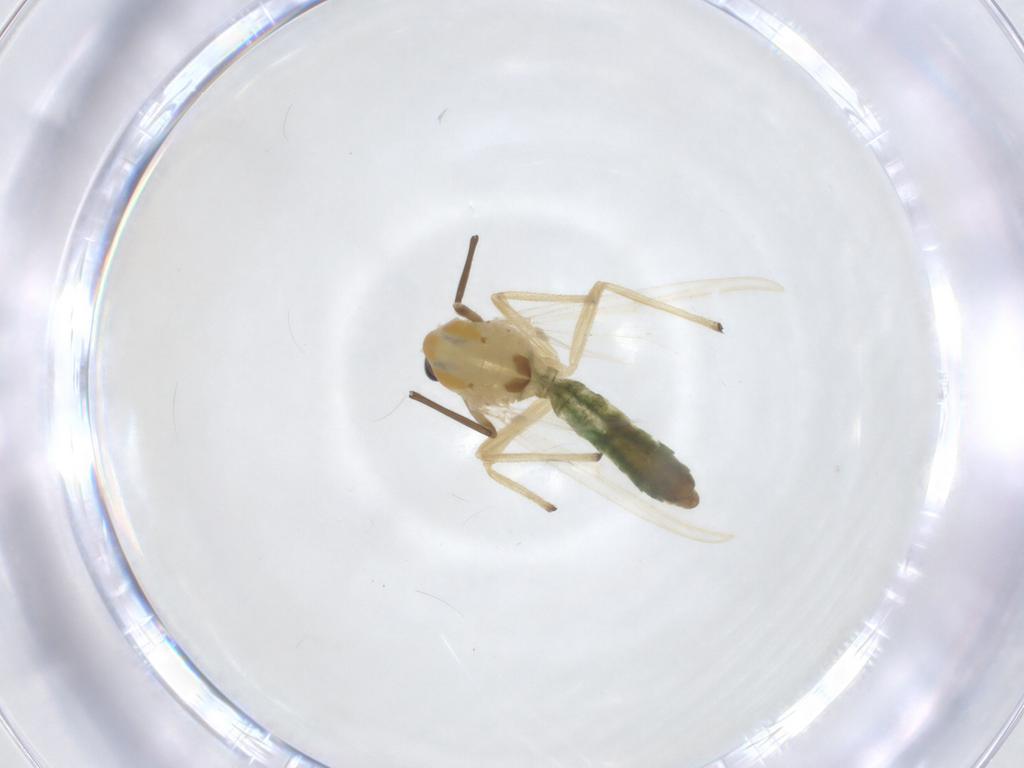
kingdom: Animalia
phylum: Arthropoda
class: Insecta
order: Diptera
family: Chironomidae
